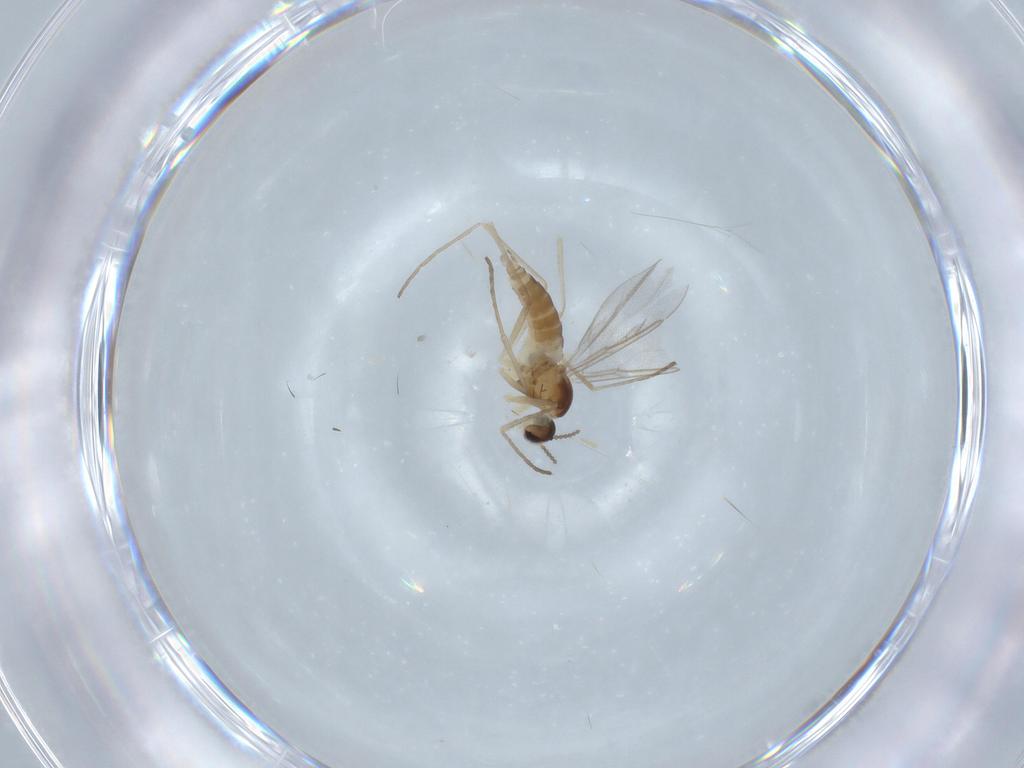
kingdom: Animalia
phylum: Arthropoda
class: Insecta
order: Diptera
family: Cecidomyiidae
